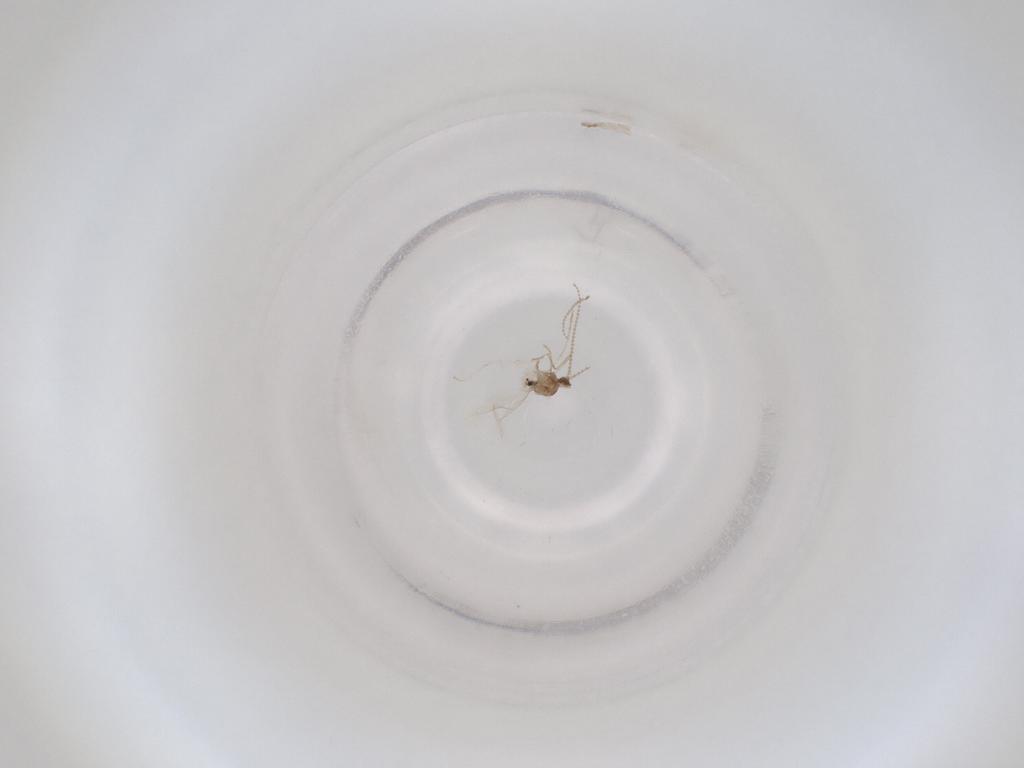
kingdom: Animalia
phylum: Arthropoda
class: Insecta
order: Diptera
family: Cecidomyiidae
